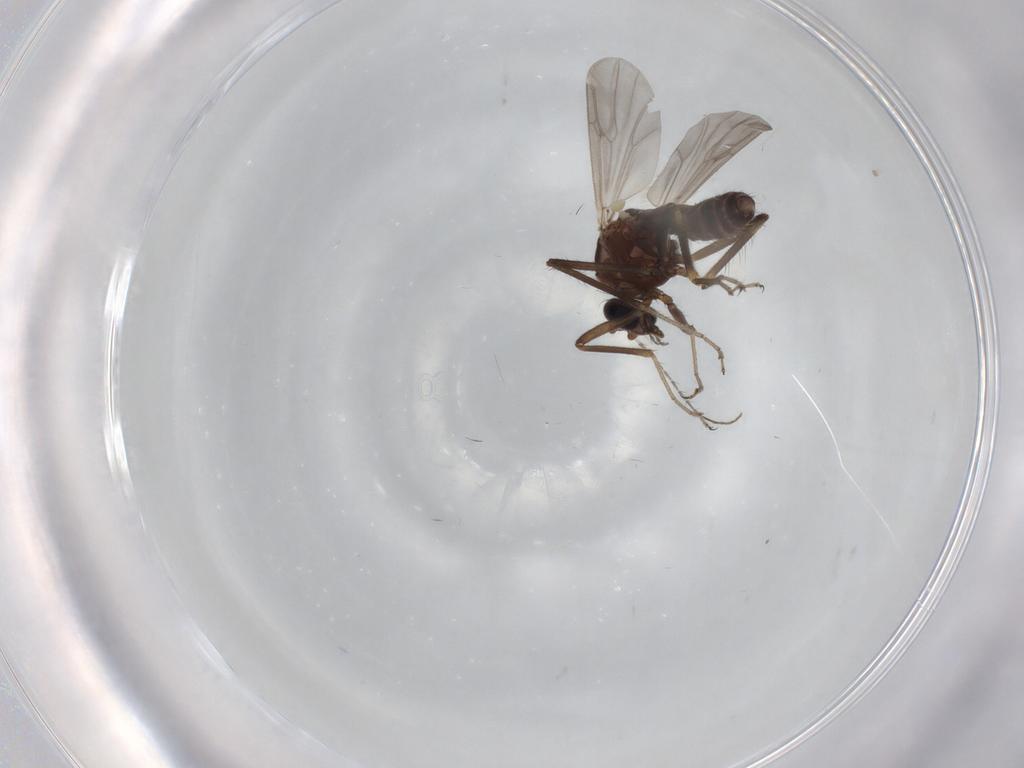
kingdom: Animalia
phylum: Arthropoda
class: Insecta
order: Diptera
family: Ceratopogonidae
